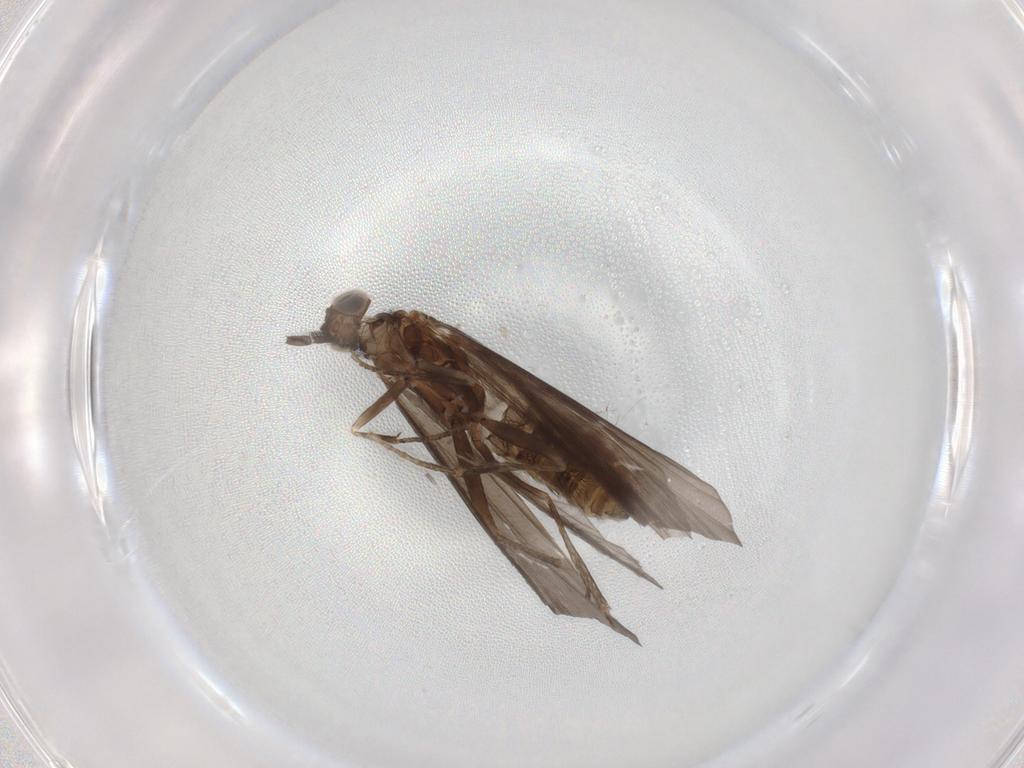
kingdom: Animalia
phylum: Arthropoda
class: Insecta
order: Trichoptera
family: Helicopsychidae
